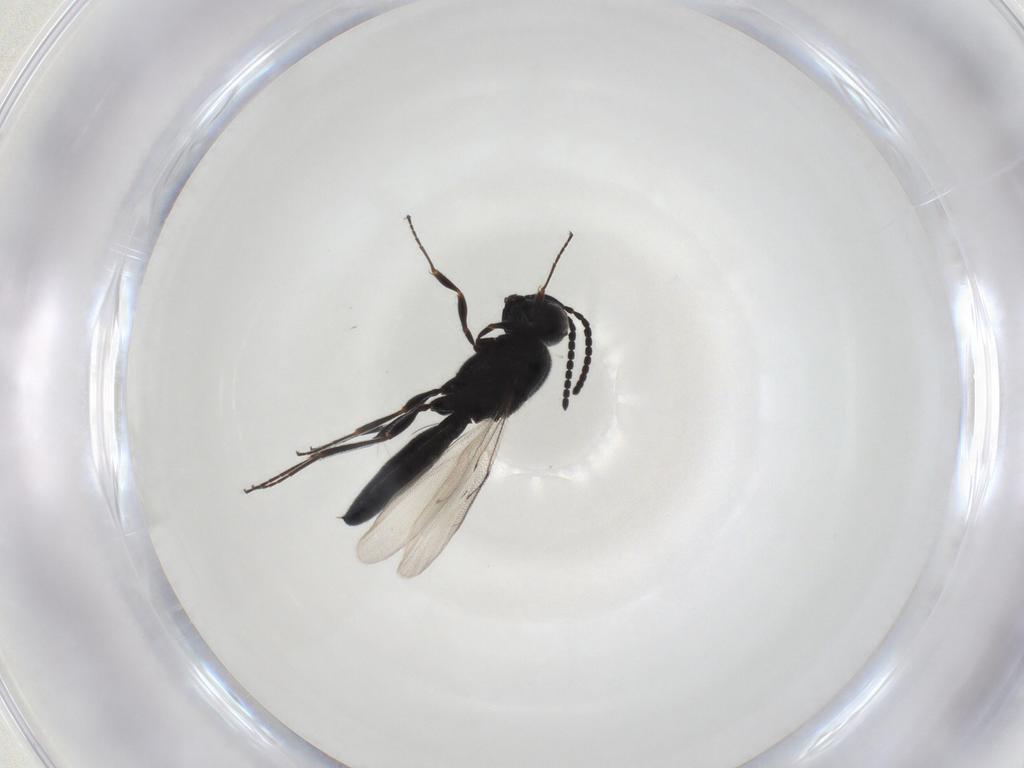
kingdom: Animalia
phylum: Arthropoda
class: Insecta
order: Hymenoptera
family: Scelionidae
